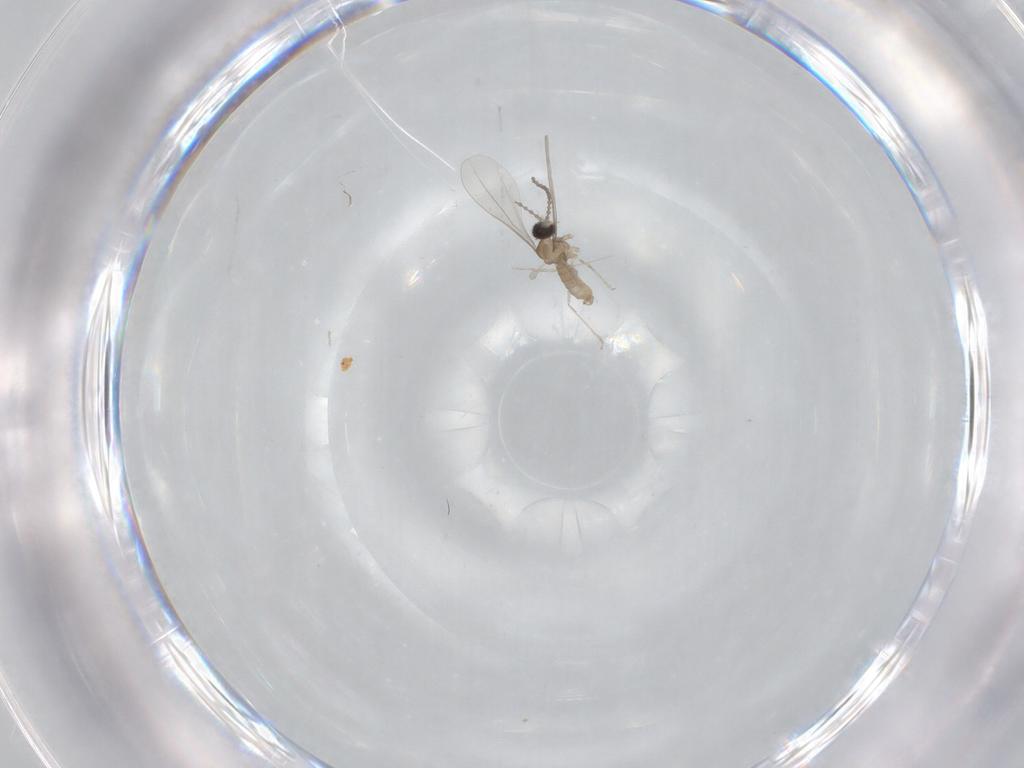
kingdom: Animalia
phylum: Arthropoda
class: Insecta
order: Diptera
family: Cecidomyiidae
